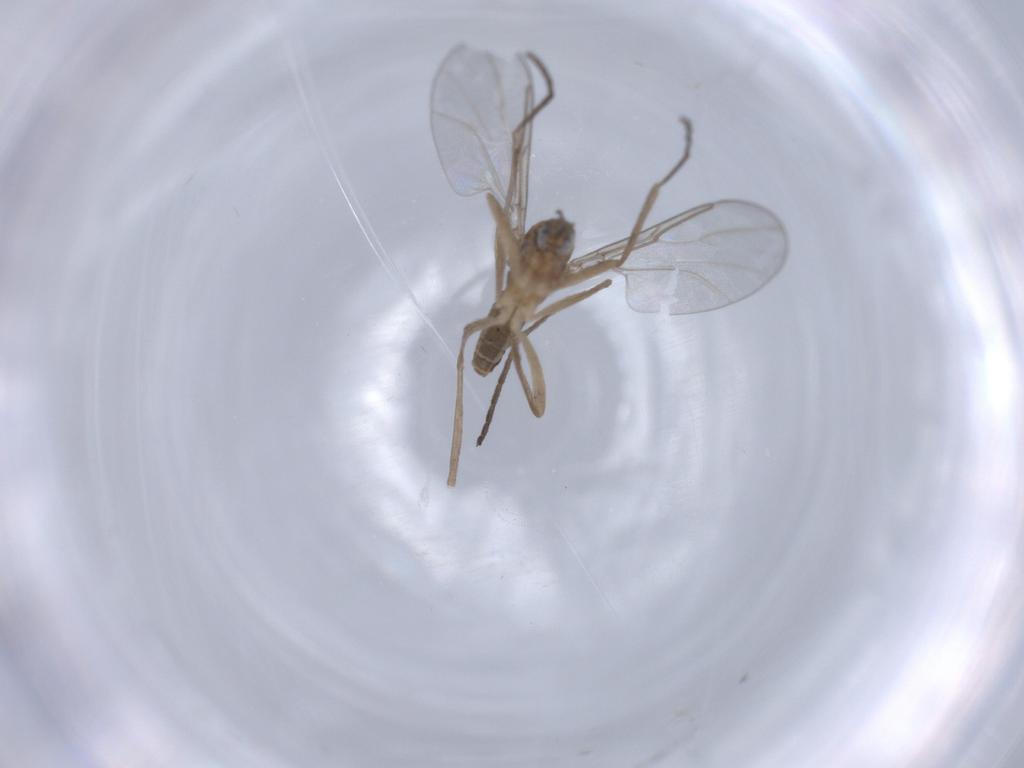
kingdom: Animalia
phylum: Arthropoda
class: Insecta
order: Diptera
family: Cecidomyiidae
